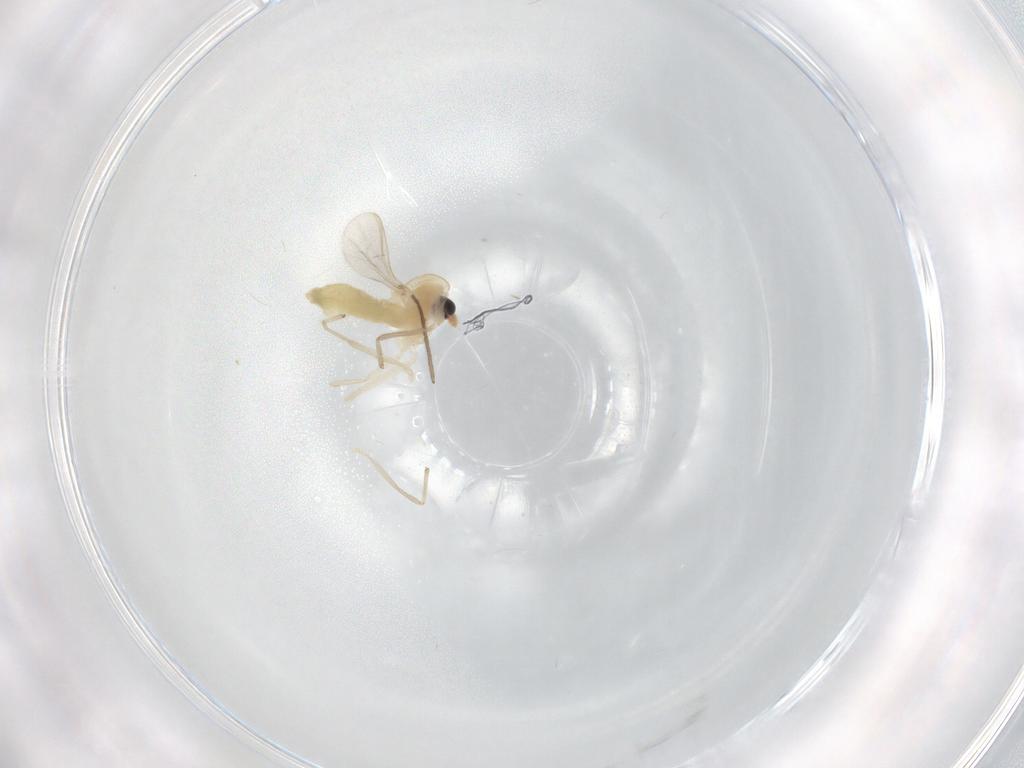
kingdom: Animalia
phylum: Arthropoda
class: Insecta
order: Diptera
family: Chironomidae
